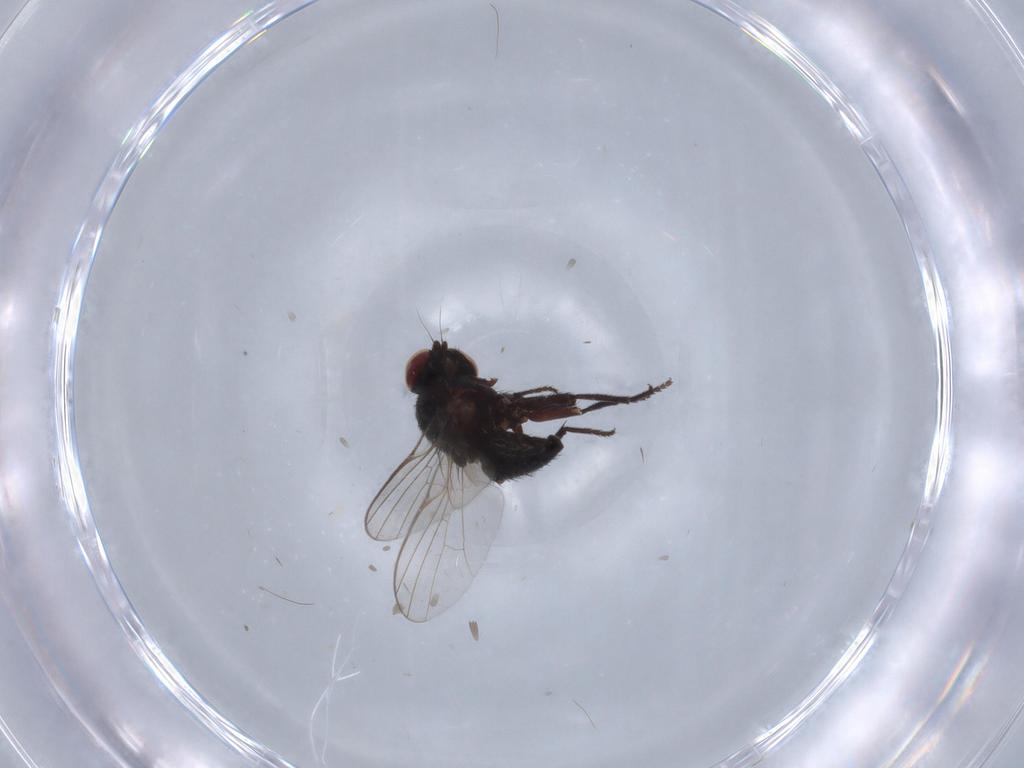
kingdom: Animalia
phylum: Arthropoda
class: Insecta
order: Diptera
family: Agromyzidae
